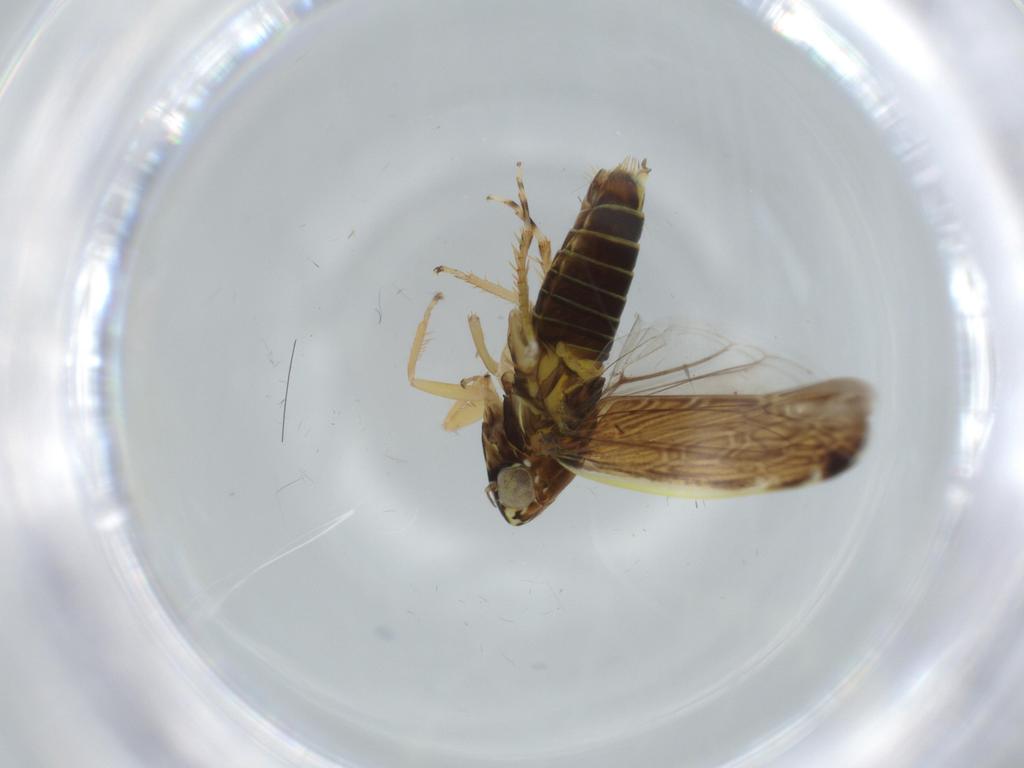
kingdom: Animalia
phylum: Arthropoda
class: Insecta
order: Hemiptera
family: Cicadellidae
